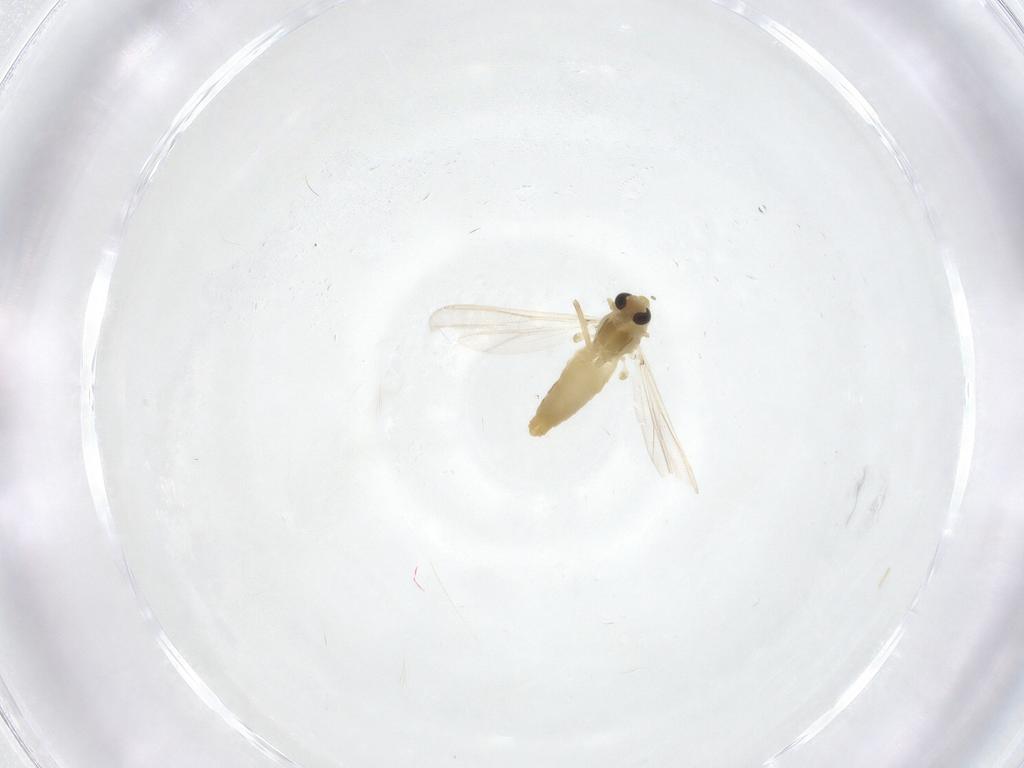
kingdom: Animalia
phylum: Arthropoda
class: Insecta
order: Diptera
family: Chironomidae
